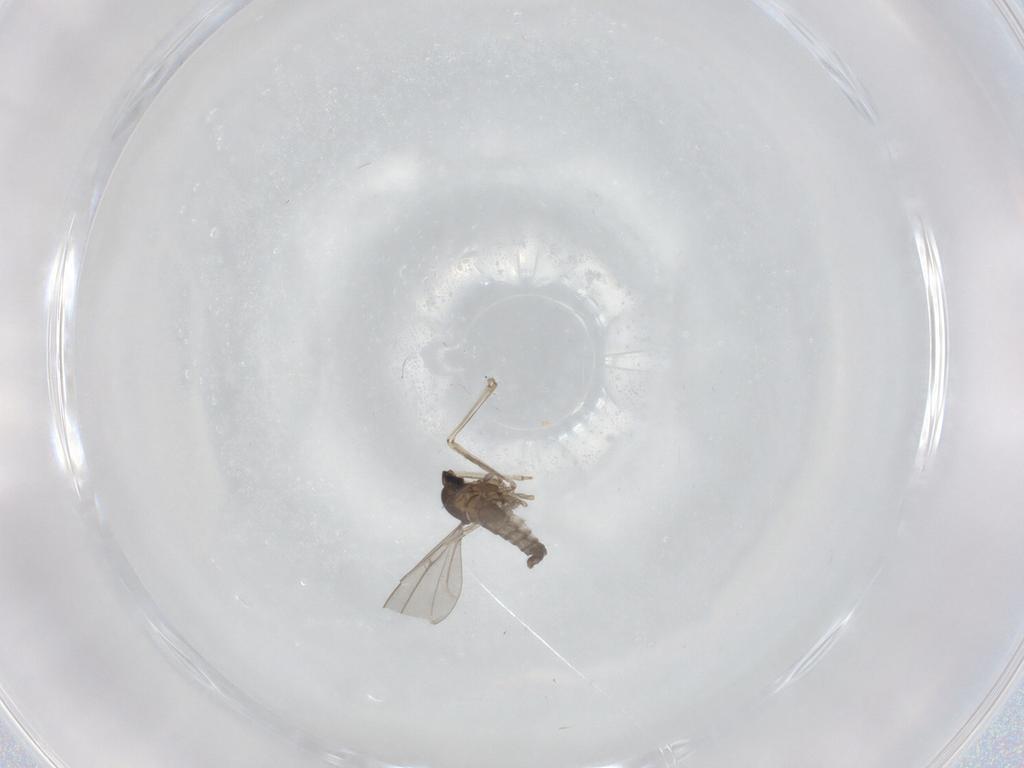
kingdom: Animalia
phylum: Arthropoda
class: Insecta
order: Diptera
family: Cecidomyiidae
